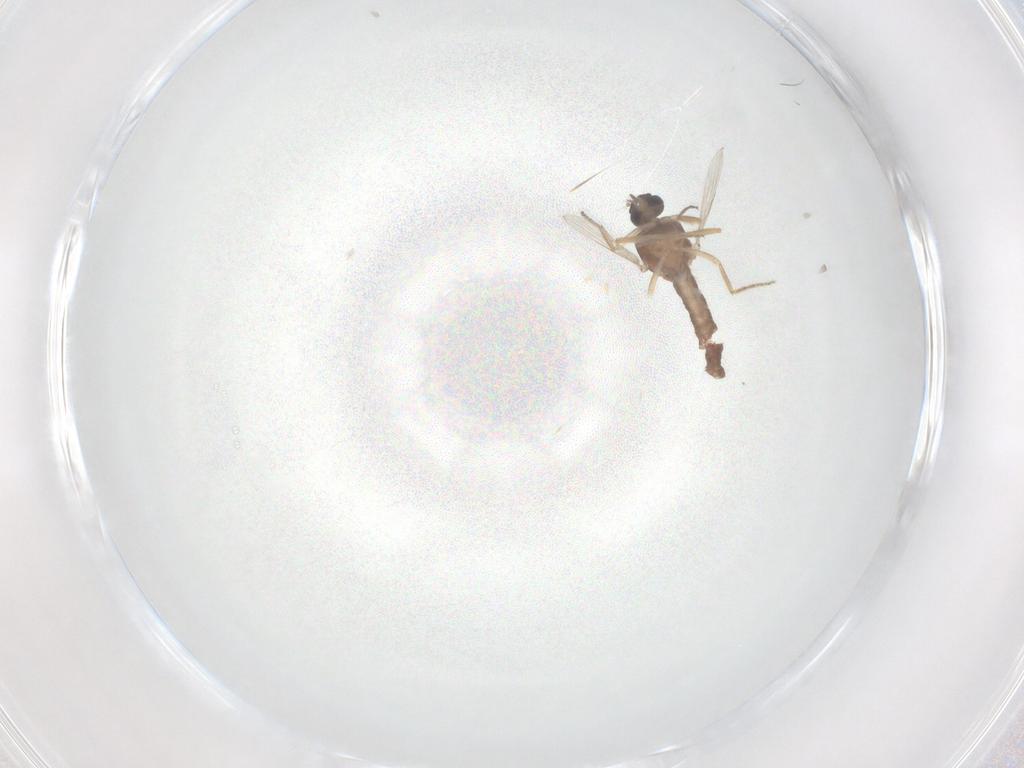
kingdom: Animalia
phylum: Arthropoda
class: Insecta
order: Diptera
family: Ceratopogonidae
